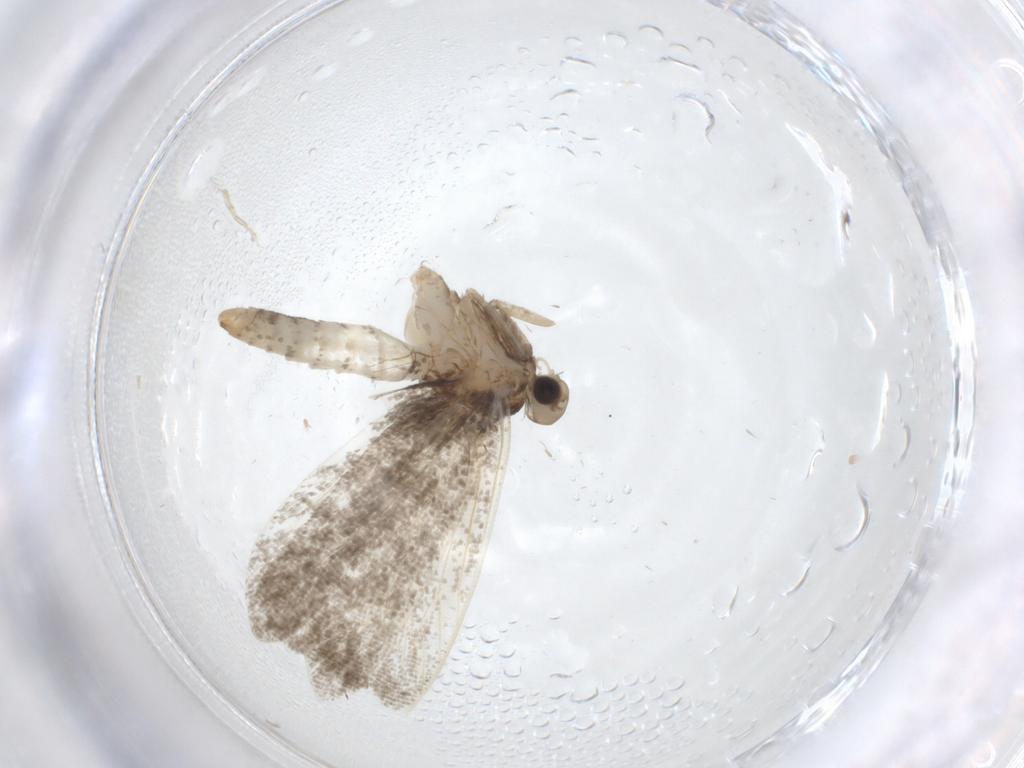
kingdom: Animalia
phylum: Arthropoda
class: Insecta
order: Lepidoptera
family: Nymphalidae
